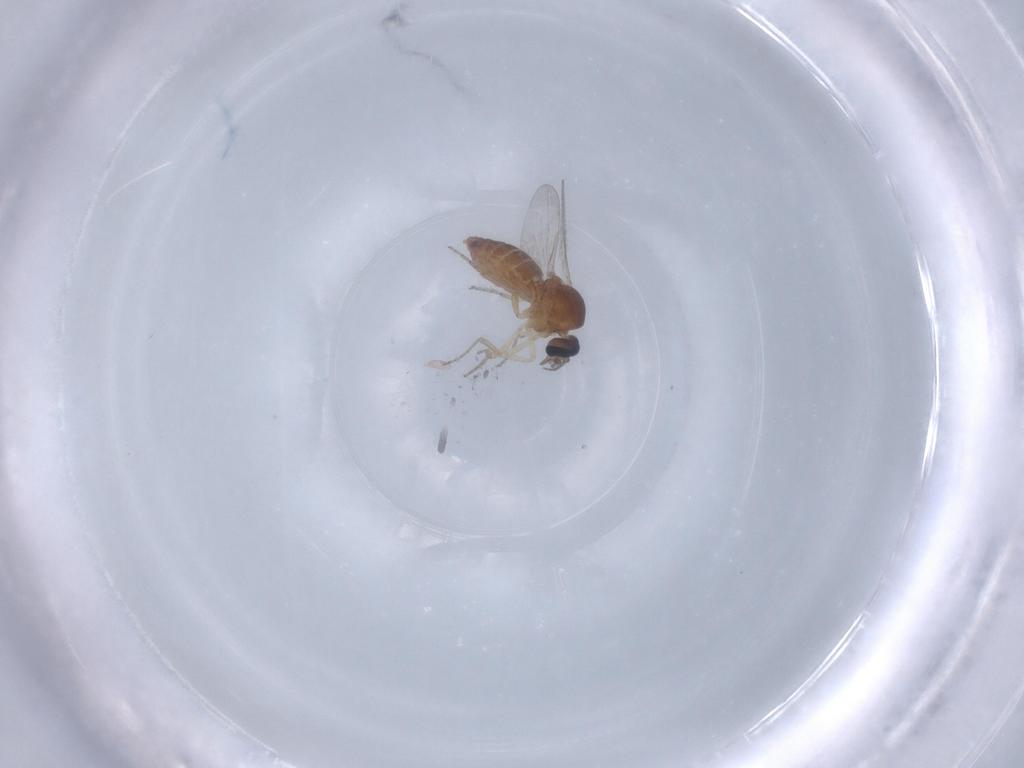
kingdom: Animalia
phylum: Arthropoda
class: Insecta
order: Diptera
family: Ceratopogonidae
